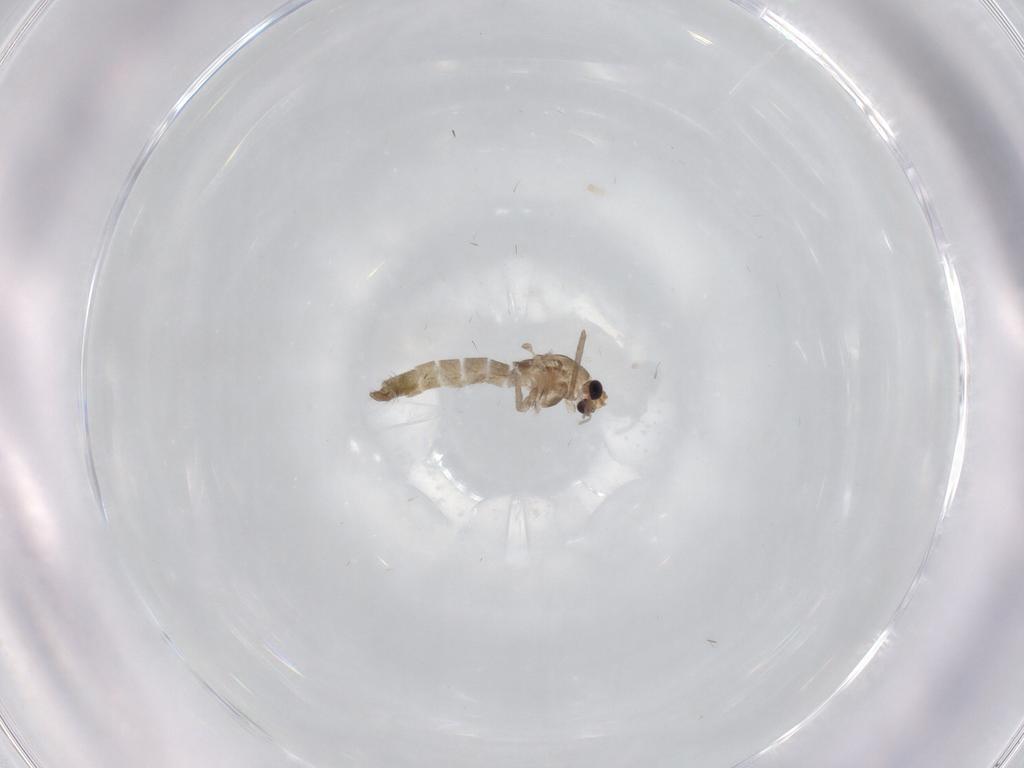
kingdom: Animalia
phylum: Arthropoda
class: Insecta
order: Diptera
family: Chironomidae
